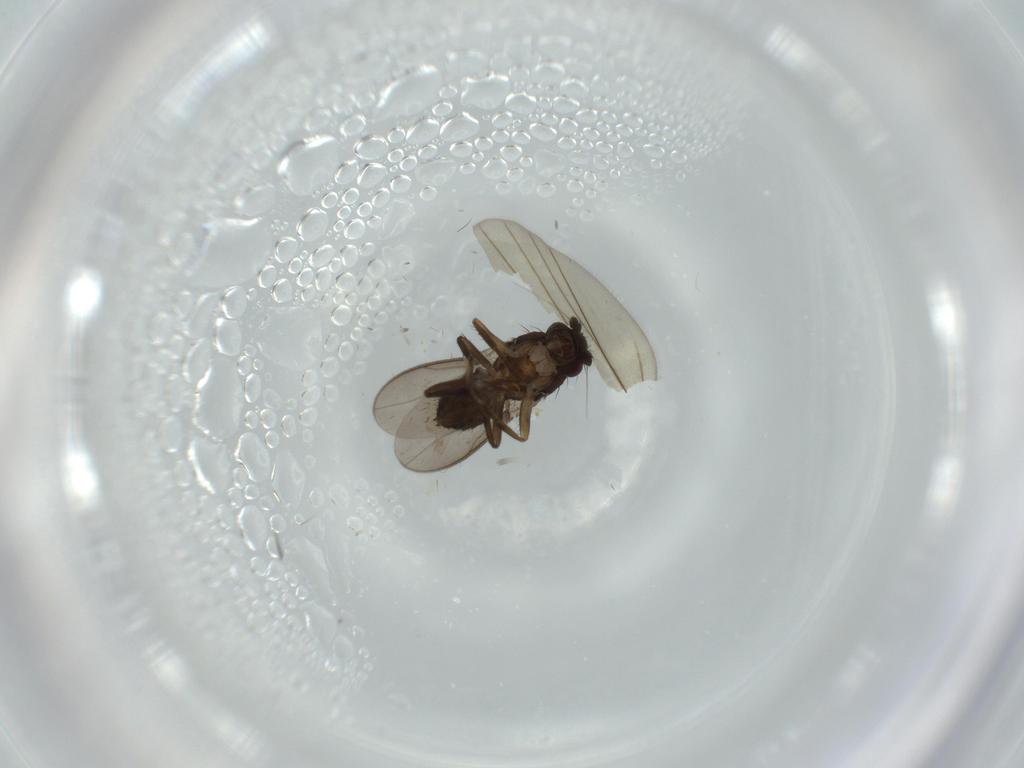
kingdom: Animalia
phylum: Arthropoda
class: Insecta
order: Diptera
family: Sphaeroceridae
